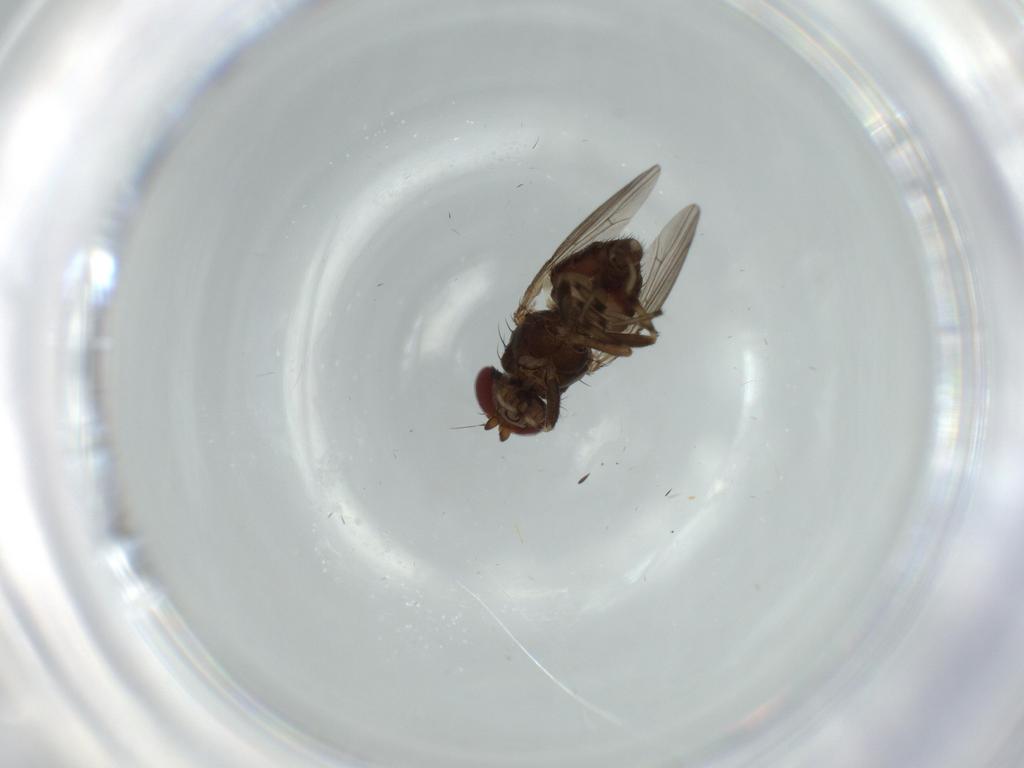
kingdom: Animalia
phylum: Arthropoda
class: Insecta
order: Diptera
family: Heleomyzidae
